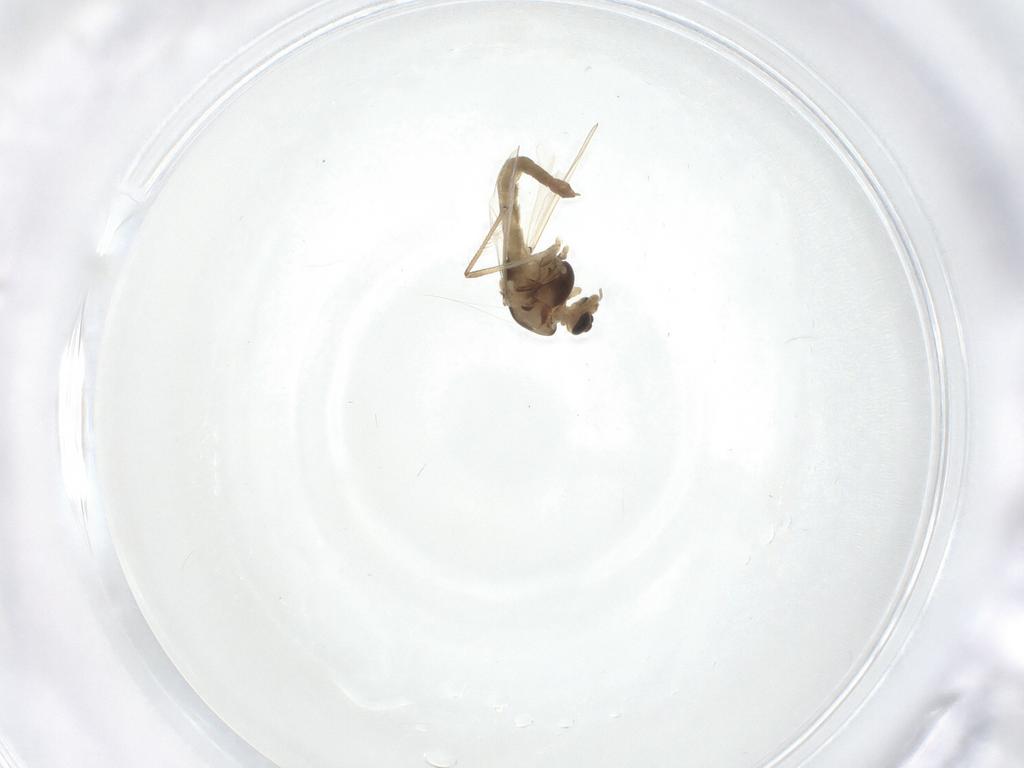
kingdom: Animalia
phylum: Arthropoda
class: Insecta
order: Diptera
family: Chironomidae
